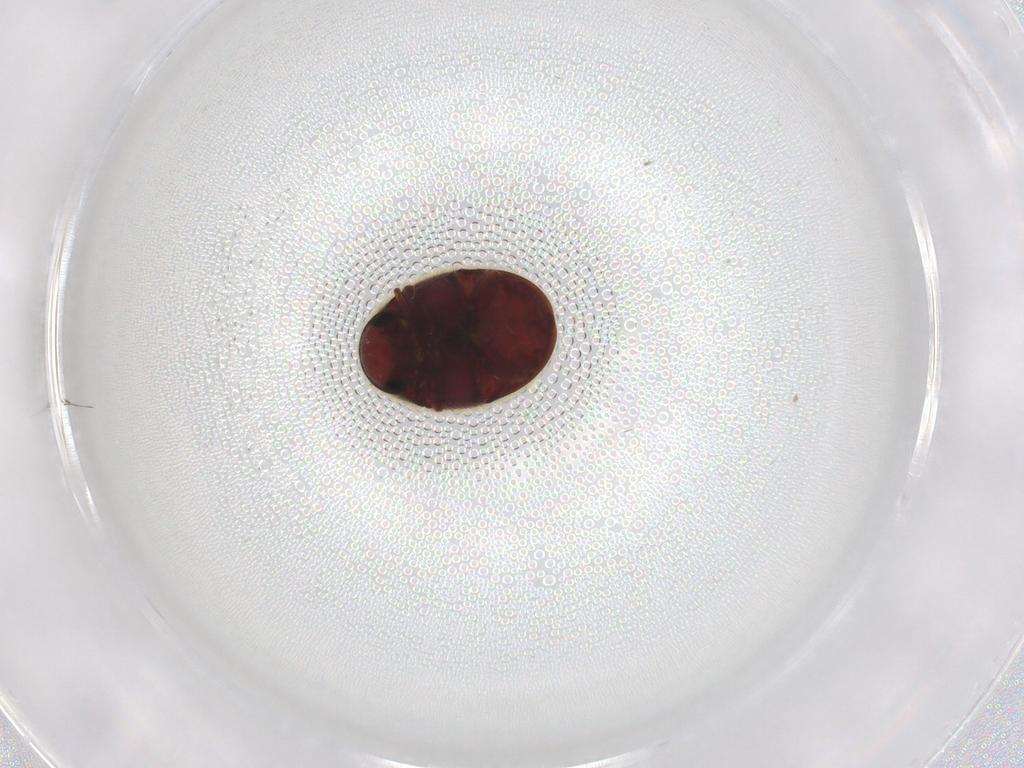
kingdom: Animalia
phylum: Arthropoda
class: Insecta
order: Coleoptera
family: Ptinidae
